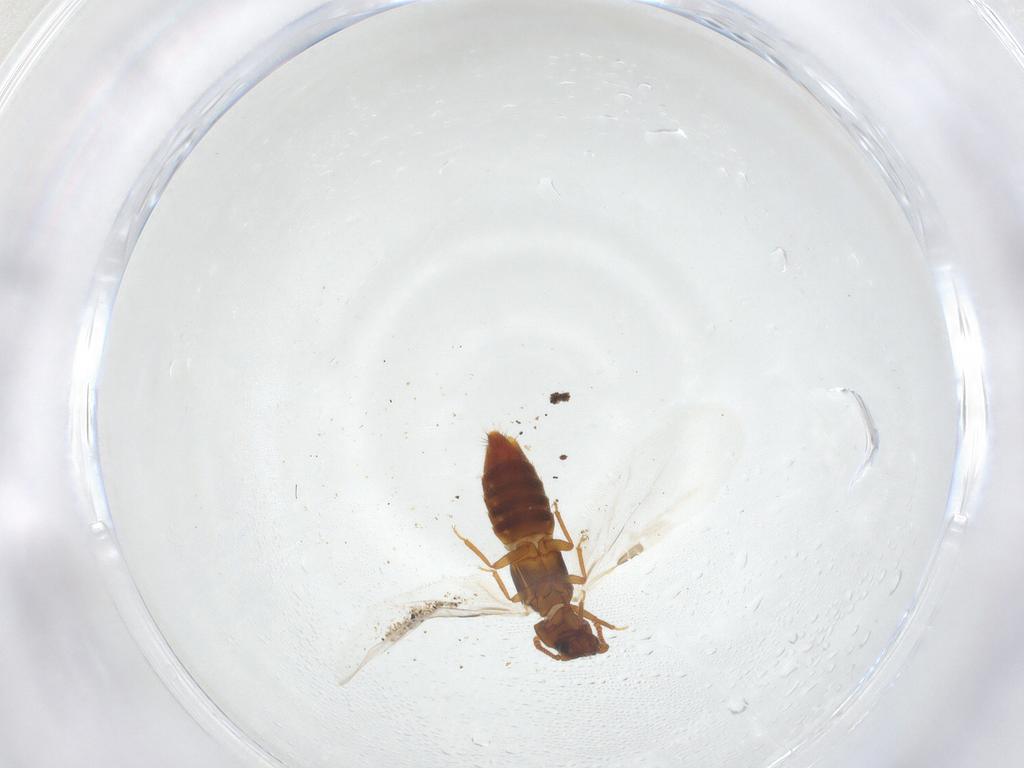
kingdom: Animalia
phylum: Arthropoda
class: Insecta
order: Coleoptera
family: Staphylinidae
